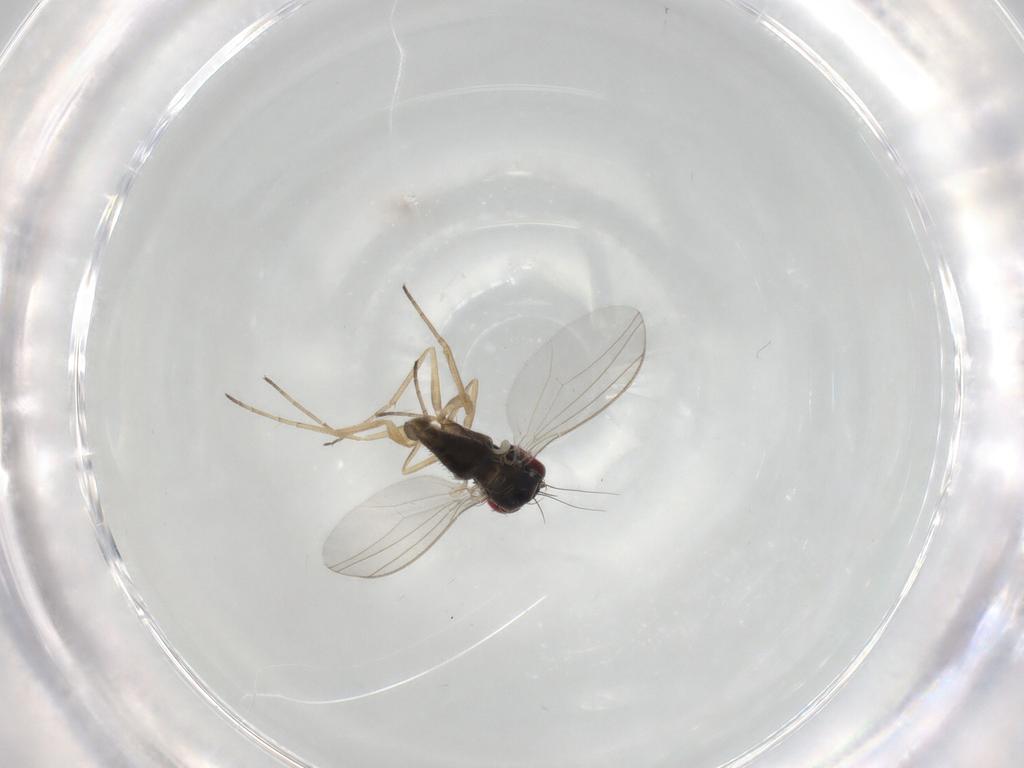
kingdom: Animalia
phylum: Arthropoda
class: Insecta
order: Diptera
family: Dolichopodidae
